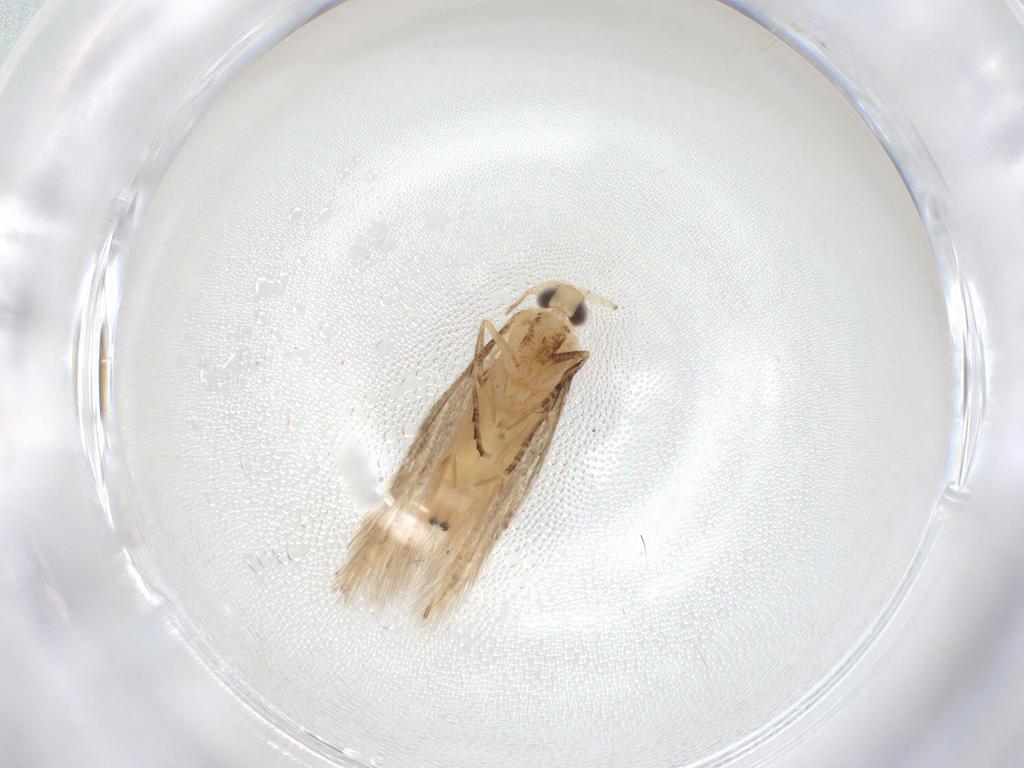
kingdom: Animalia
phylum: Arthropoda
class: Insecta
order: Lepidoptera
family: Bucculatricidae
